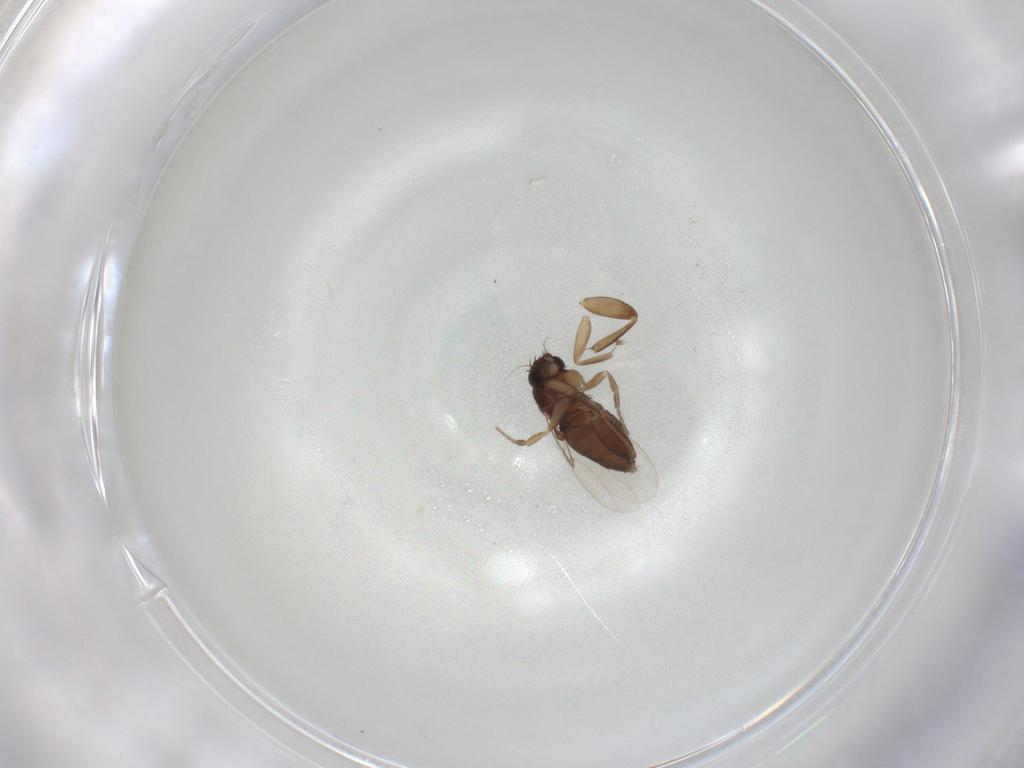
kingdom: Animalia
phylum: Arthropoda
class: Insecta
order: Diptera
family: Phoridae
